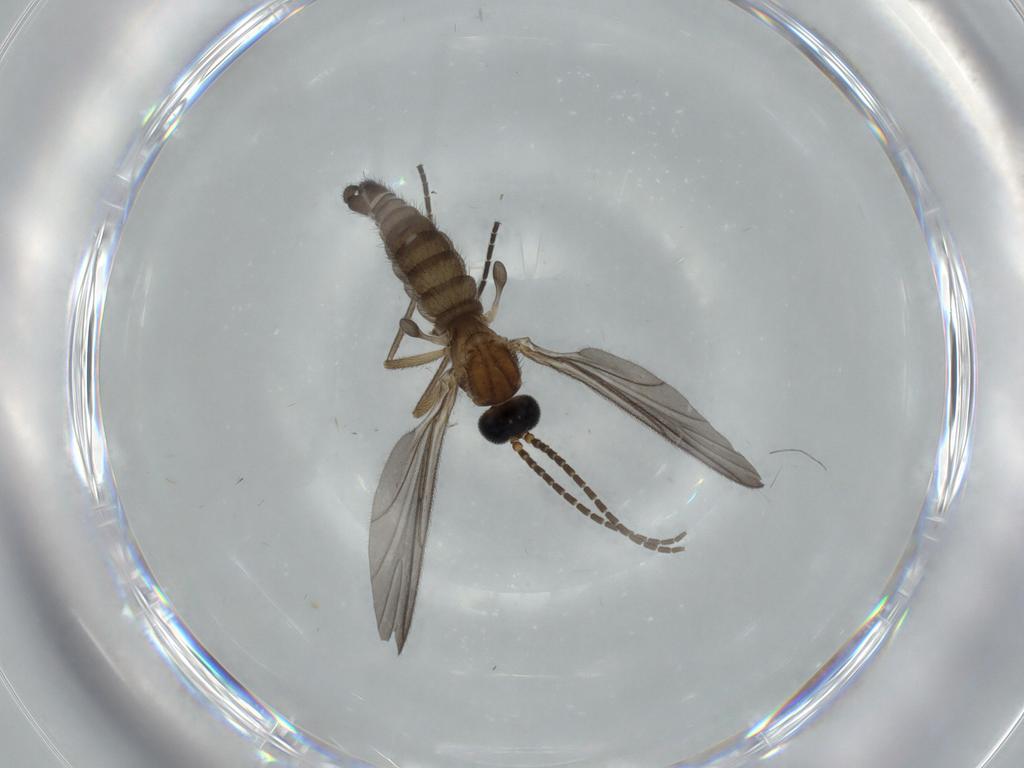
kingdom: Animalia
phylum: Arthropoda
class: Insecta
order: Diptera
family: Sciaridae
